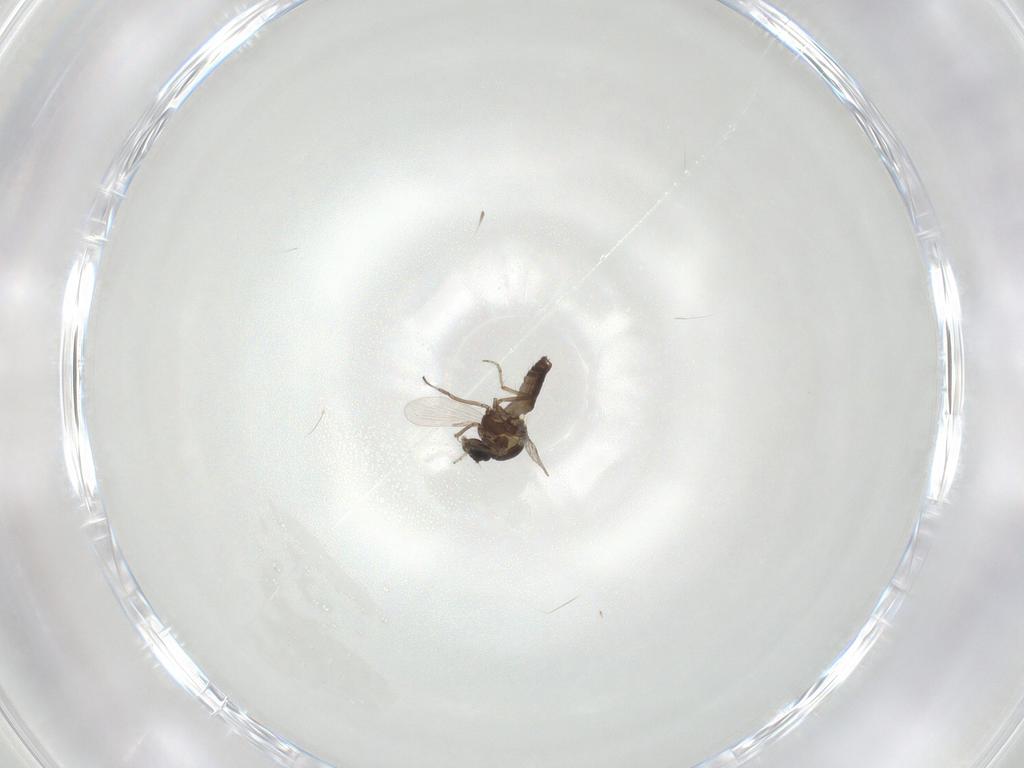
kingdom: Animalia
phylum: Arthropoda
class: Insecta
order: Diptera
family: Ceratopogonidae
